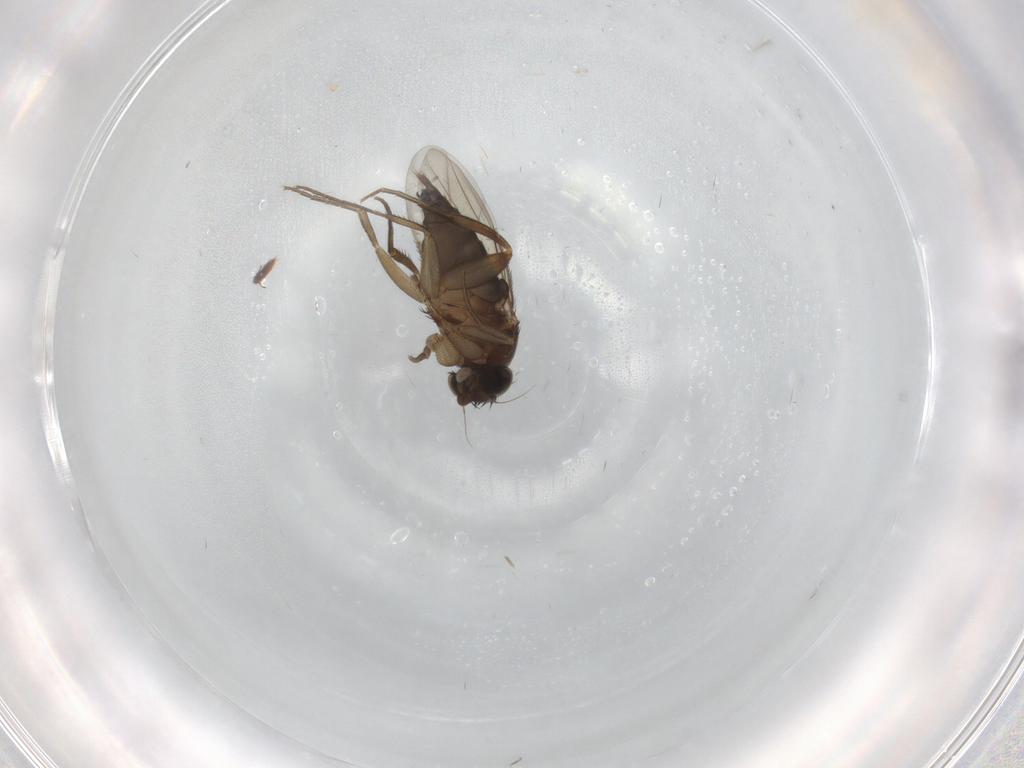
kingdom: Animalia
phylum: Arthropoda
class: Insecta
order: Diptera
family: Phoridae
